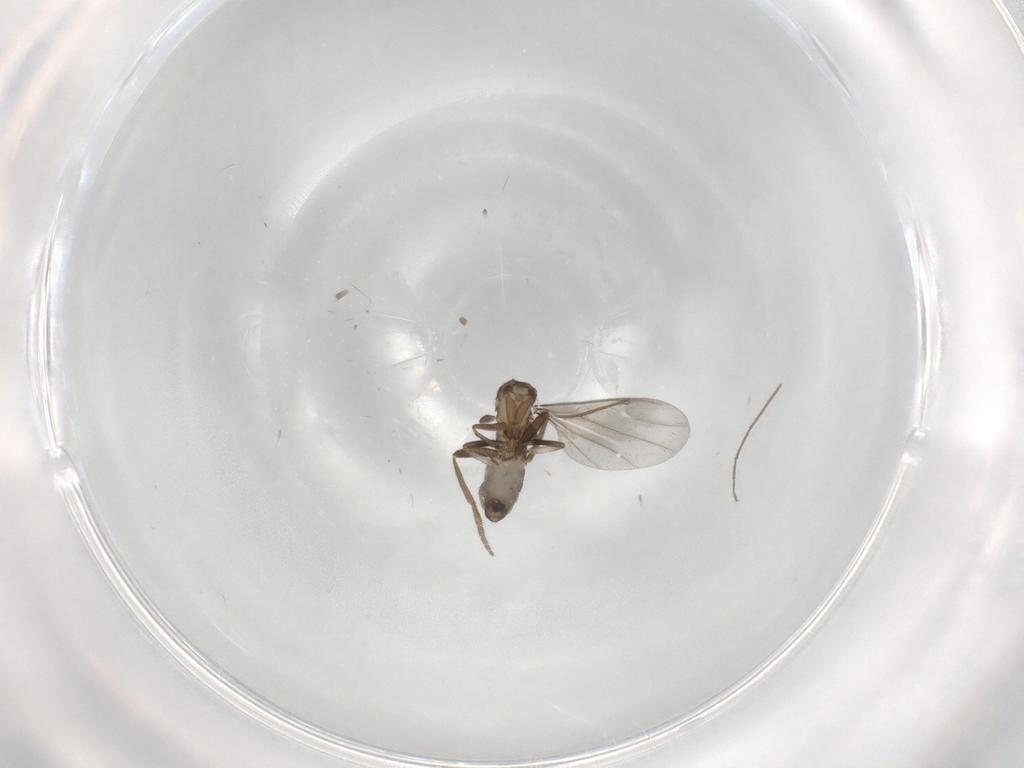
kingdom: Animalia
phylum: Arthropoda
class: Insecta
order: Diptera
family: Phoridae
